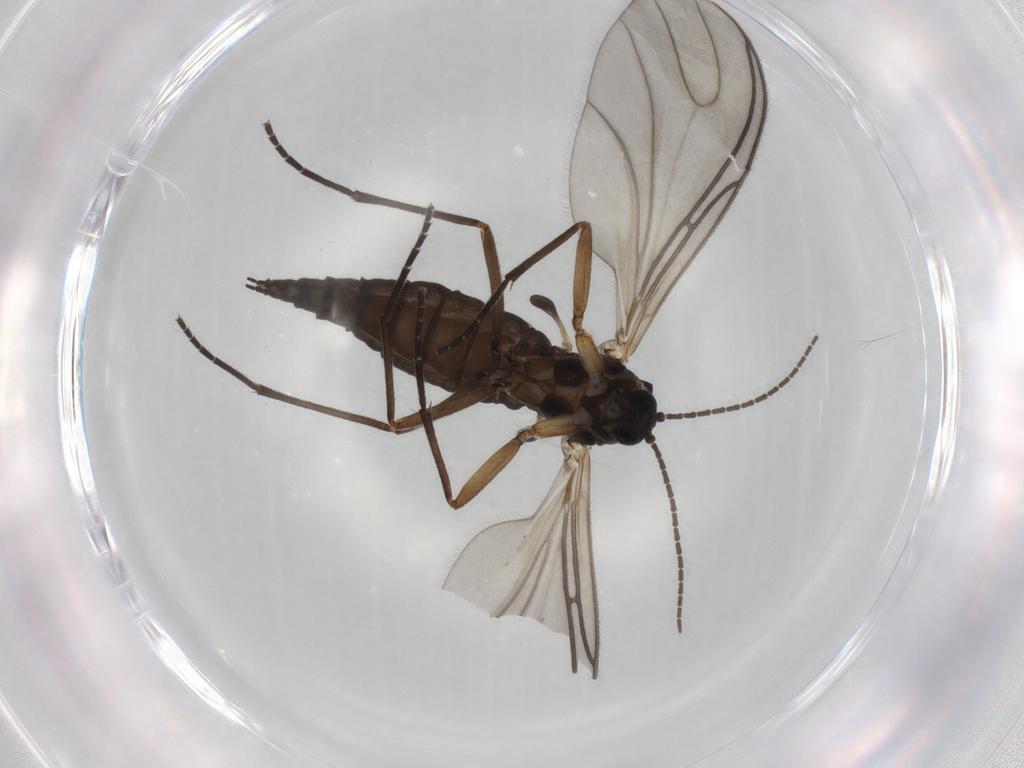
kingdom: Animalia
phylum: Arthropoda
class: Insecta
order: Diptera
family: Sciaridae
